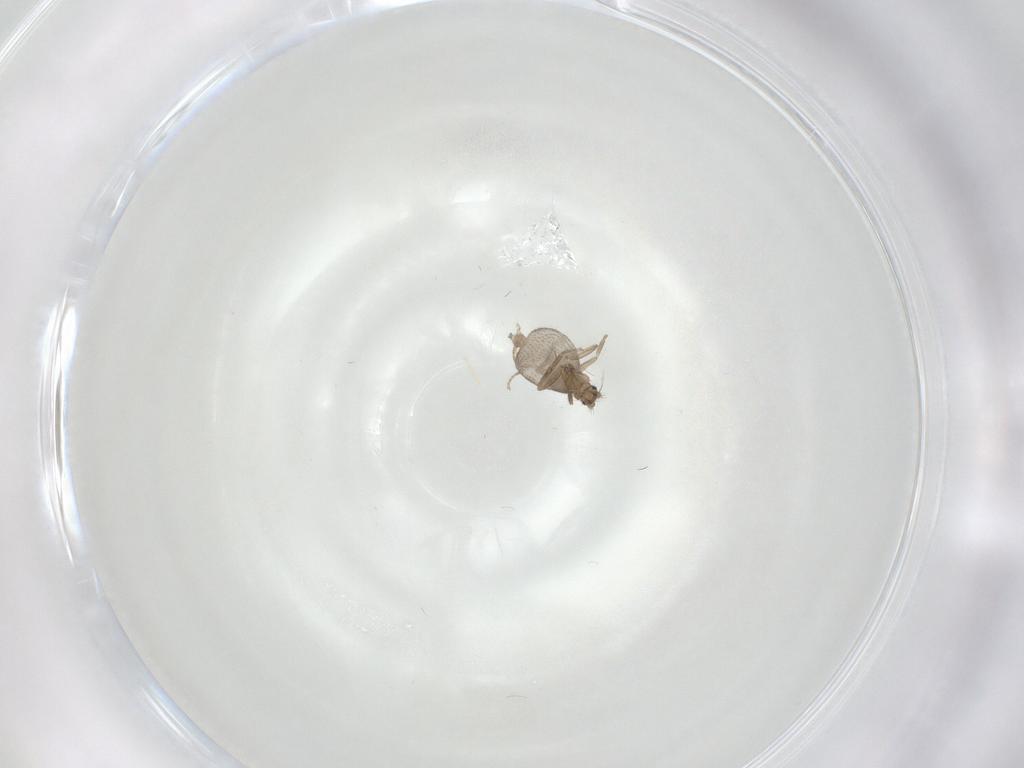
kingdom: Animalia
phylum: Arthropoda
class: Insecta
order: Diptera
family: Phoridae
